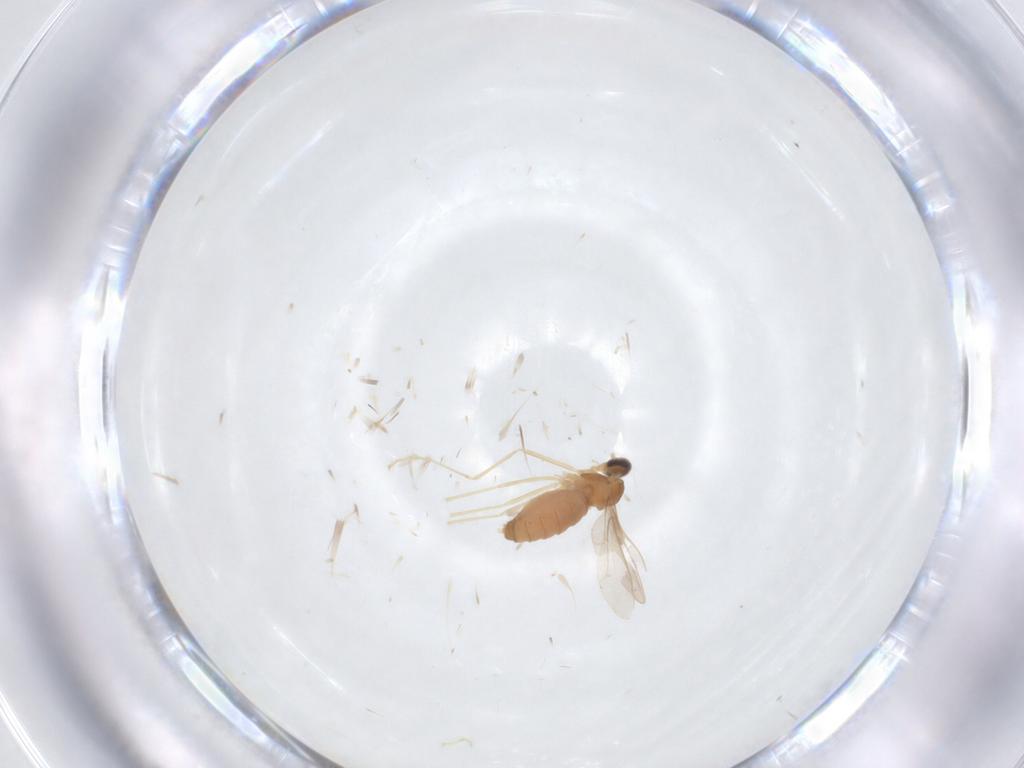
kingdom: Animalia
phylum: Arthropoda
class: Insecta
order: Diptera
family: Cecidomyiidae
